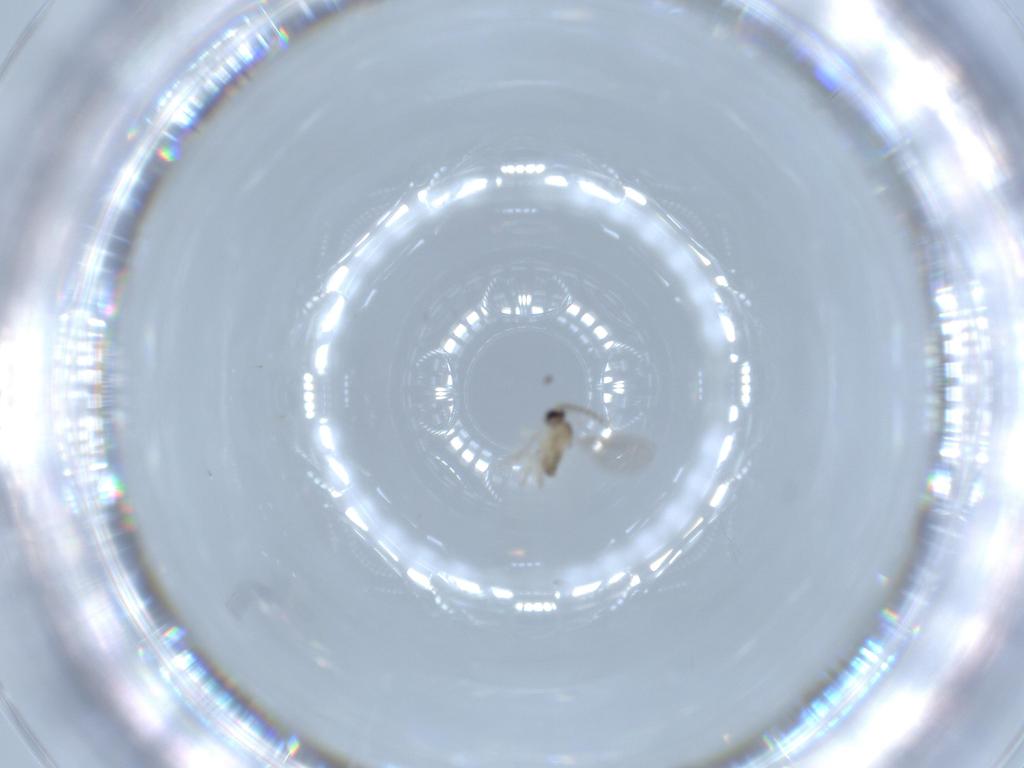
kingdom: Animalia
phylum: Arthropoda
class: Insecta
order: Diptera
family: Cecidomyiidae
